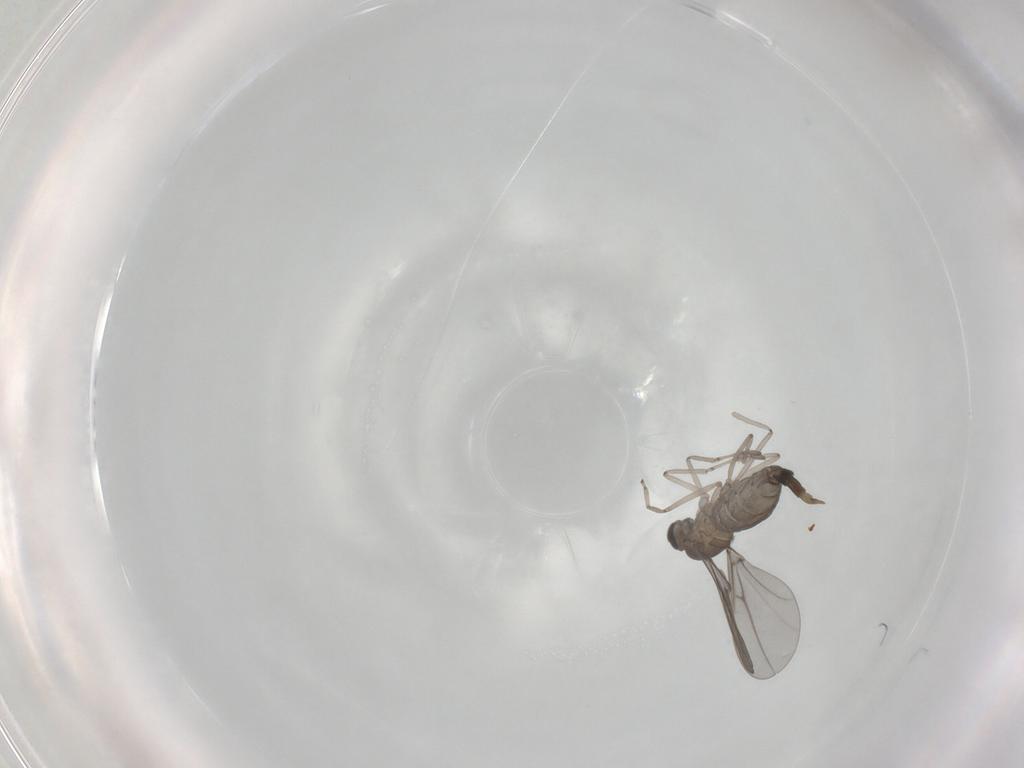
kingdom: Animalia
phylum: Arthropoda
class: Insecta
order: Diptera
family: Cecidomyiidae
